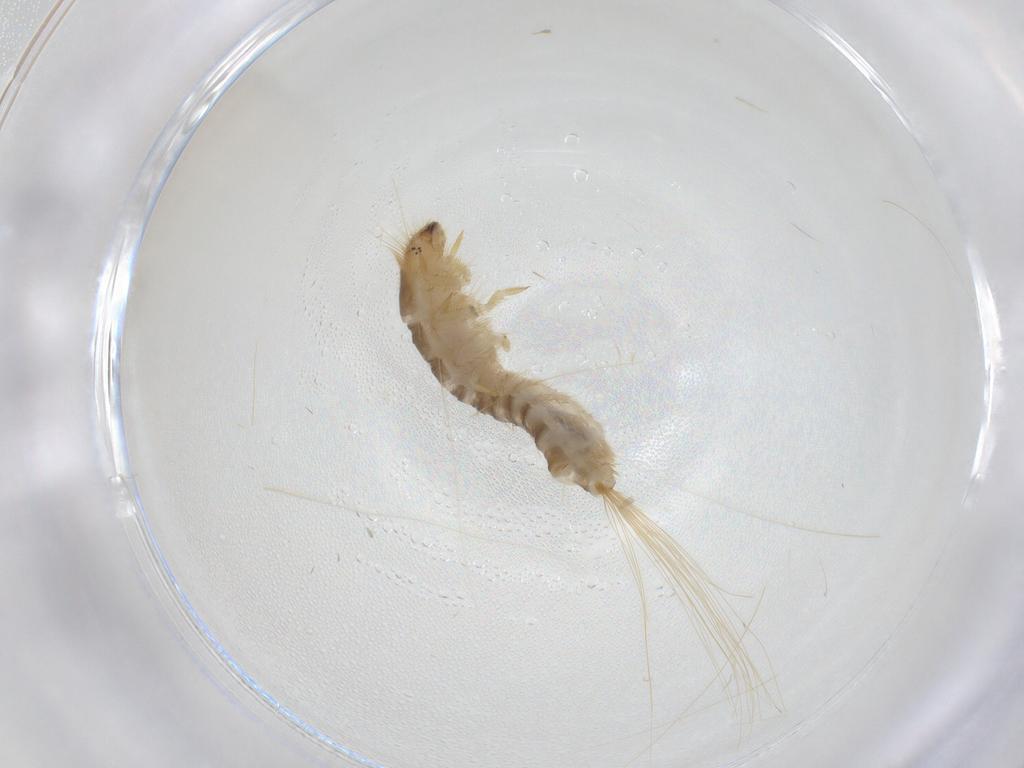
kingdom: Animalia
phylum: Arthropoda
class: Insecta
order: Coleoptera
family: Dermestidae
